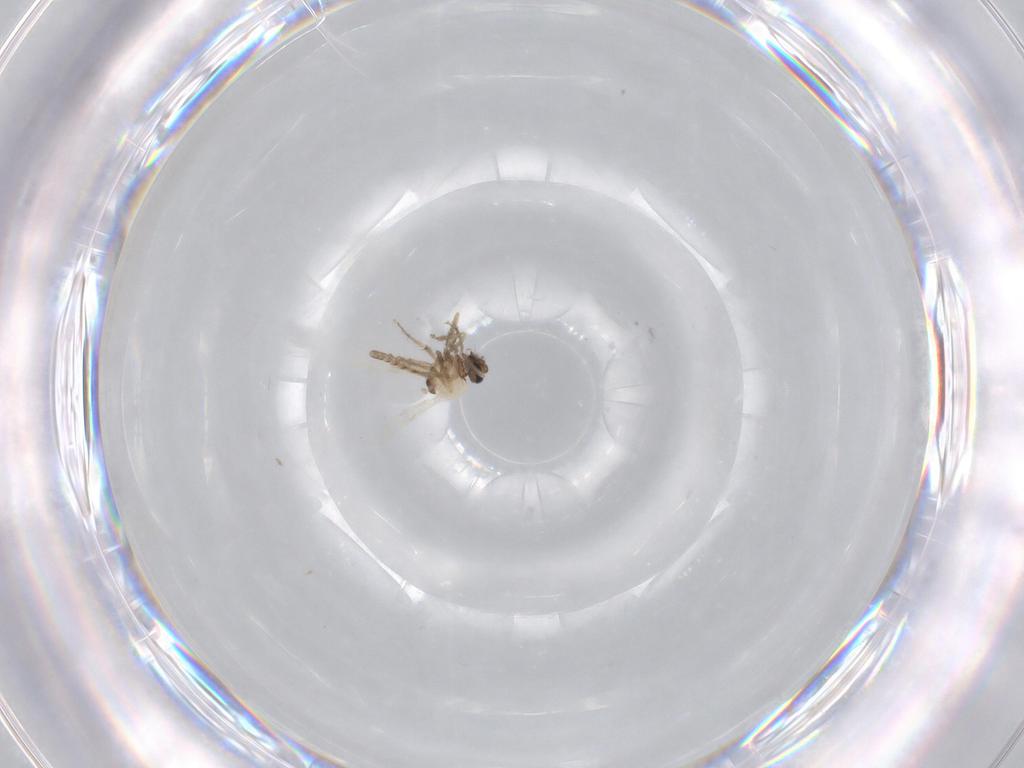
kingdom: Animalia
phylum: Arthropoda
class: Insecta
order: Diptera
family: Ceratopogonidae
